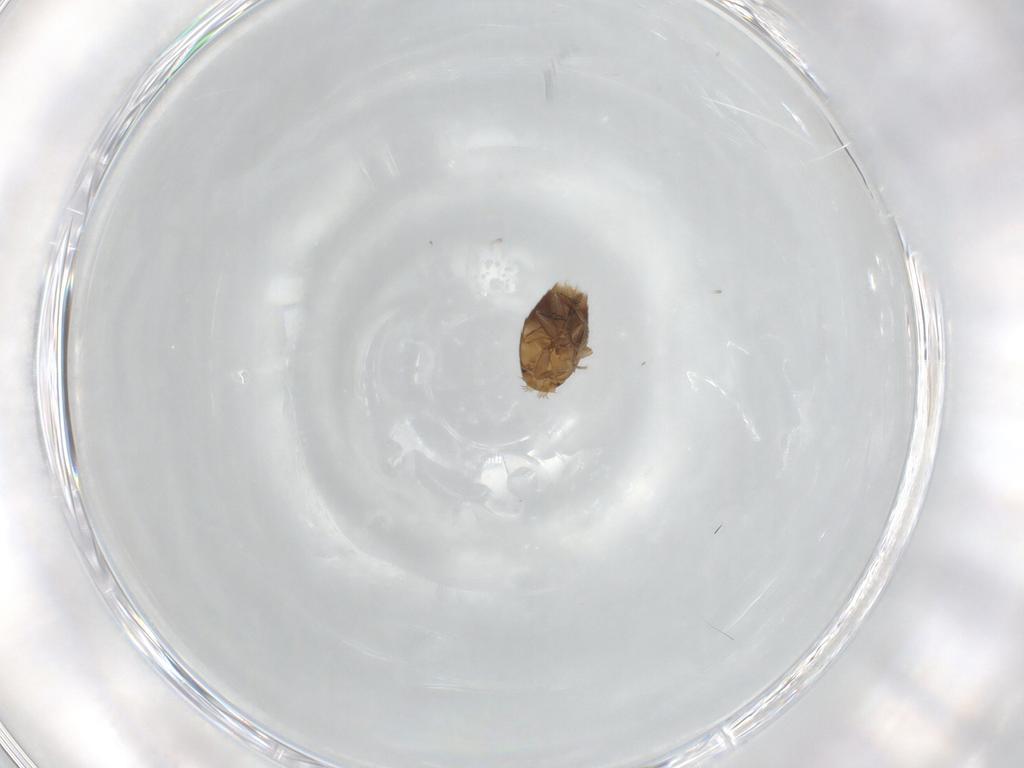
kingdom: Animalia
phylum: Arthropoda
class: Insecta
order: Diptera
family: Phoridae
